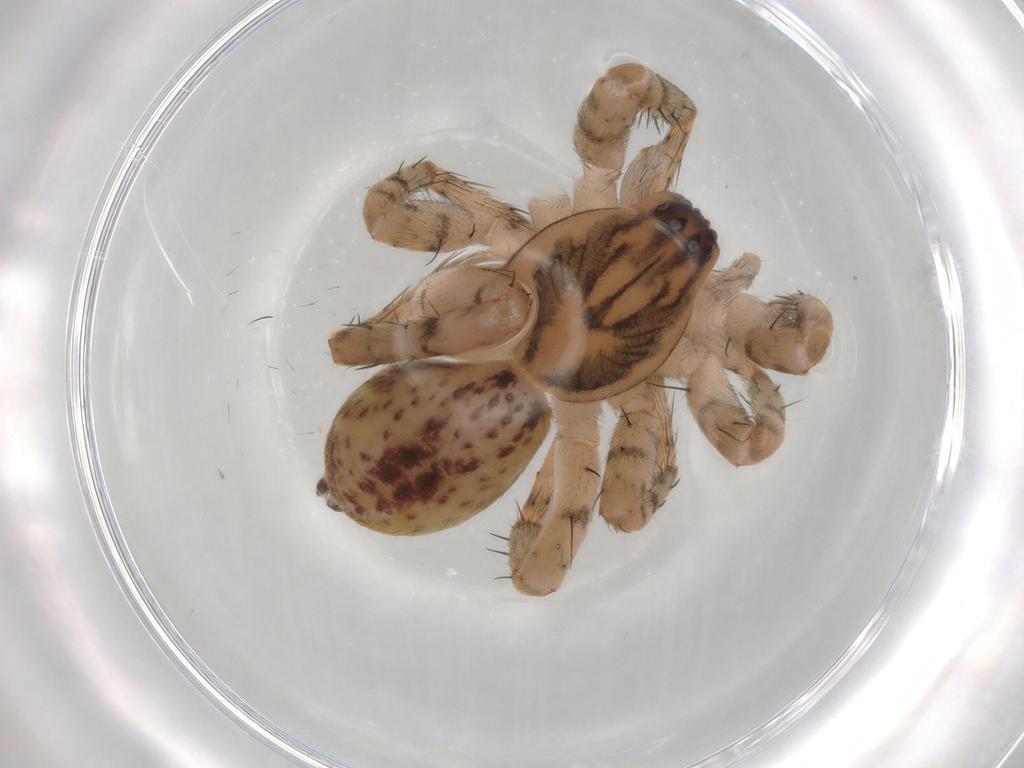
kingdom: Animalia
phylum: Arthropoda
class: Arachnida
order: Araneae
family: Anyphaenidae
